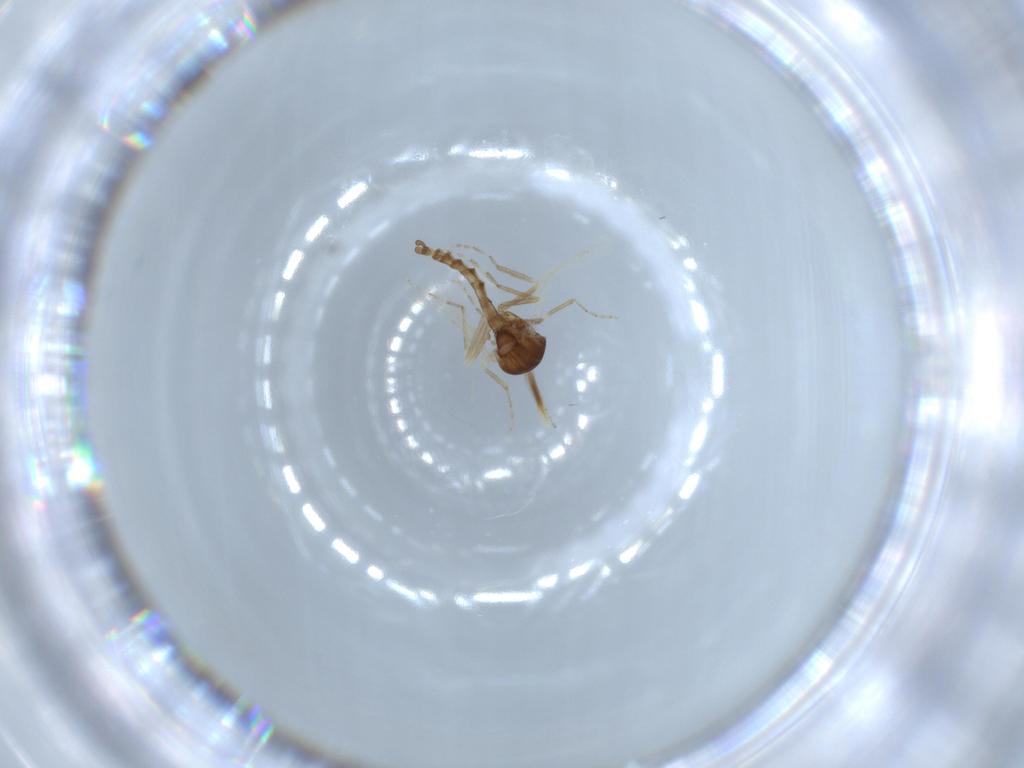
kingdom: Animalia
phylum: Arthropoda
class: Insecta
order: Diptera
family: Ceratopogonidae
